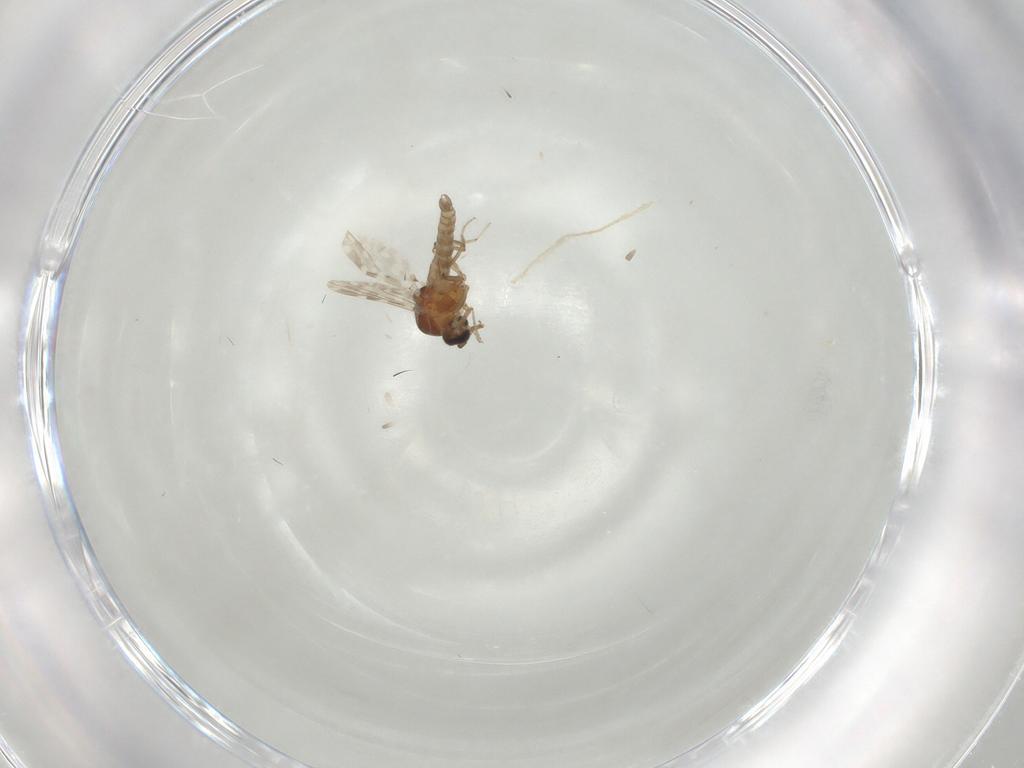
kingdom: Animalia
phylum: Arthropoda
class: Insecta
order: Diptera
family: Ceratopogonidae
